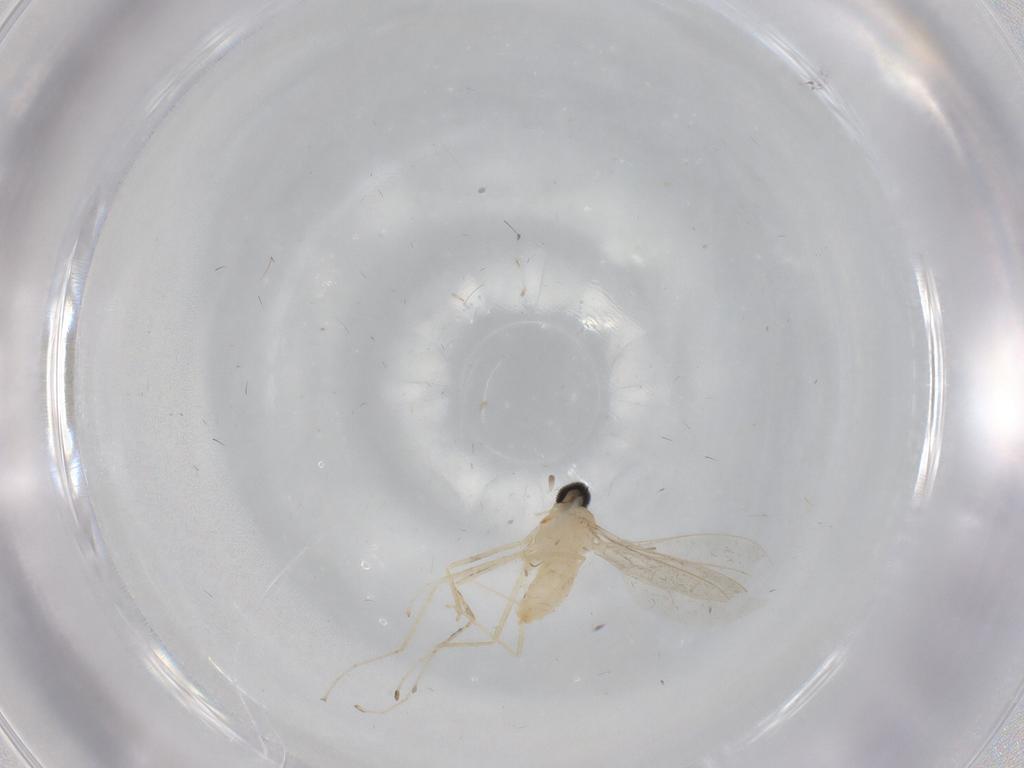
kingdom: Animalia
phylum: Arthropoda
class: Insecta
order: Diptera
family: Cecidomyiidae
